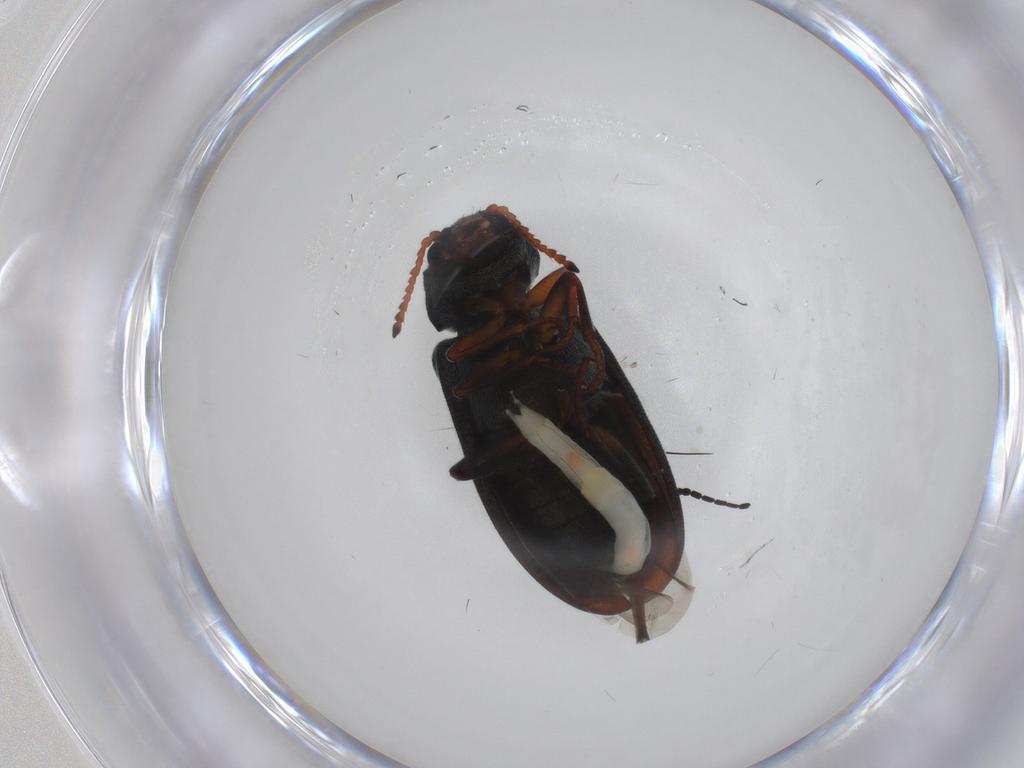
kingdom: Animalia
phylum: Arthropoda
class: Insecta
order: Coleoptera
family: Melyridae
